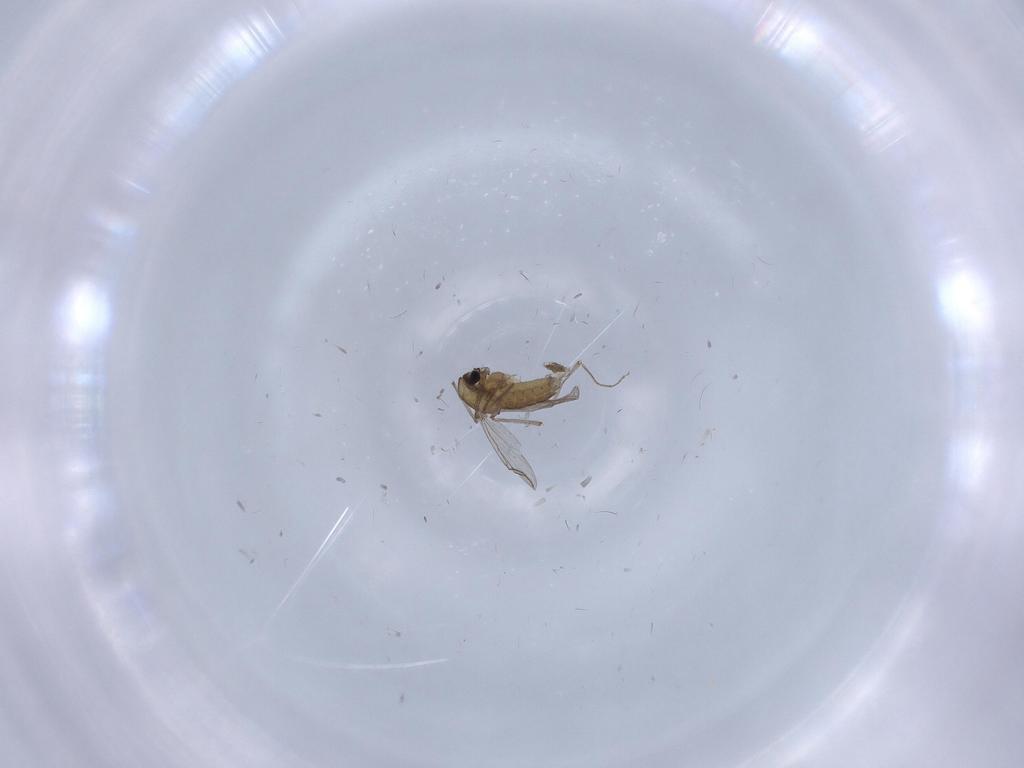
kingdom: Animalia
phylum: Arthropoda
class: Insecta
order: Diptera
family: Chironomidae
